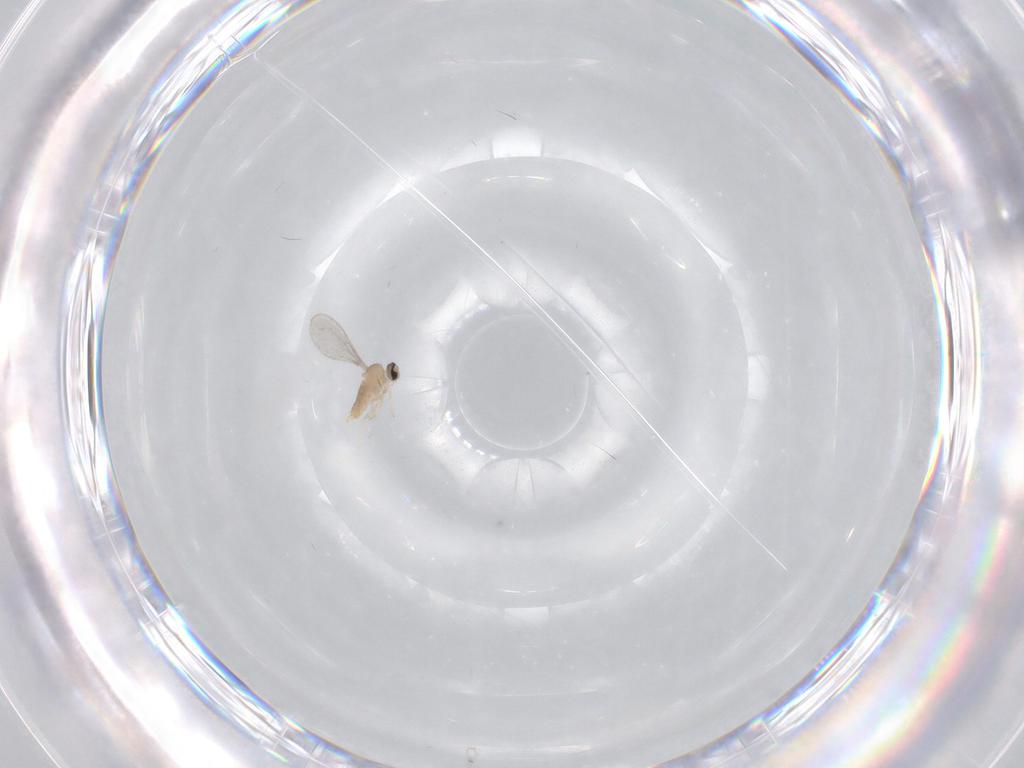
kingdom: Animalia
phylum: Arthropoda
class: Insecta
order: Diptera
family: Cecidomyiidae
